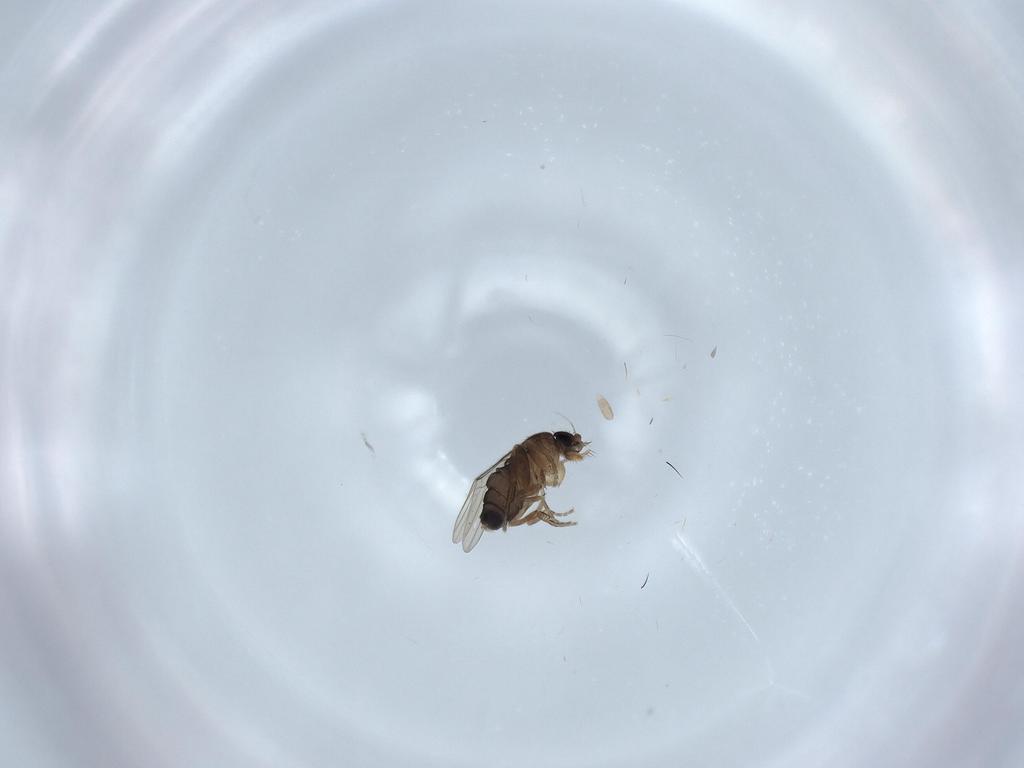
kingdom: Animalia
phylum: Arthropoda
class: Insecta
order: Diptera
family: Phoridae
